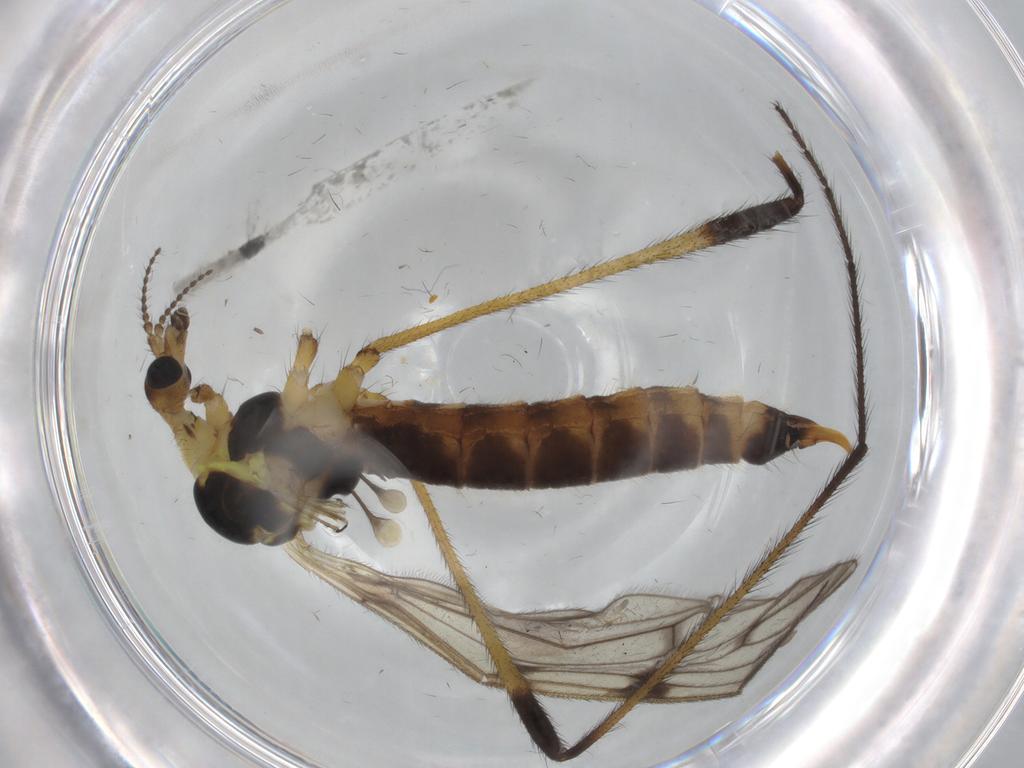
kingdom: Animalia
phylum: Arthropoda
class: Insecta
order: Diptera
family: Limoniidae
